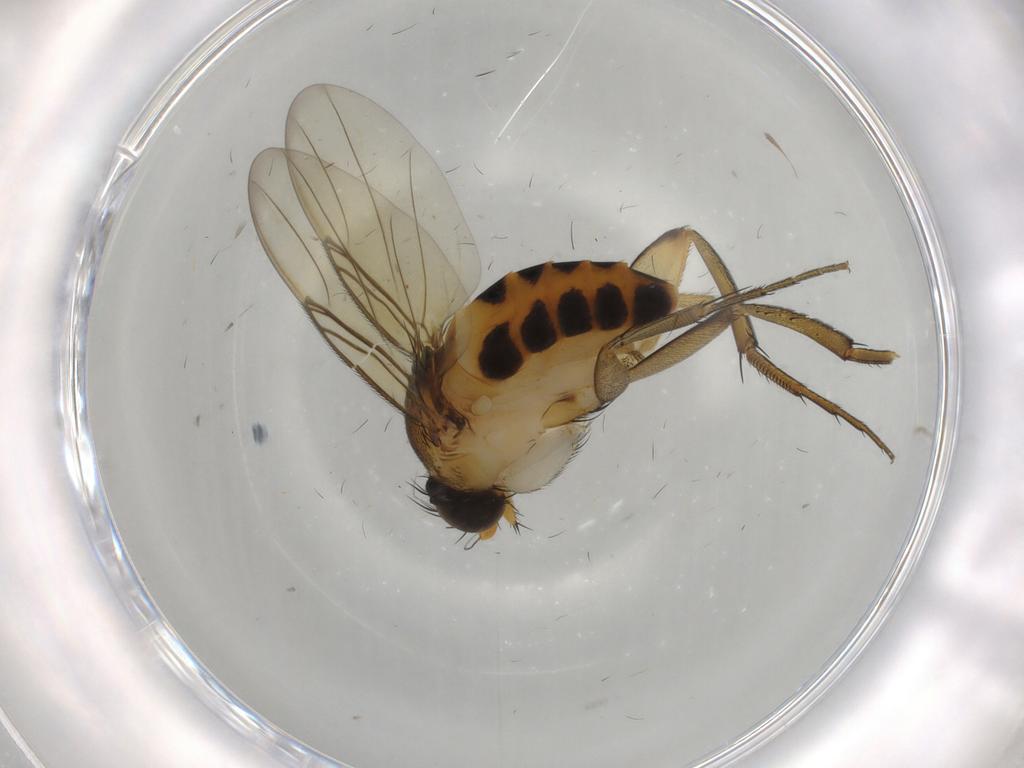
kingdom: Animalia
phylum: Arthropoda
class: Insecta
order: Diptera
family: Phoridae
